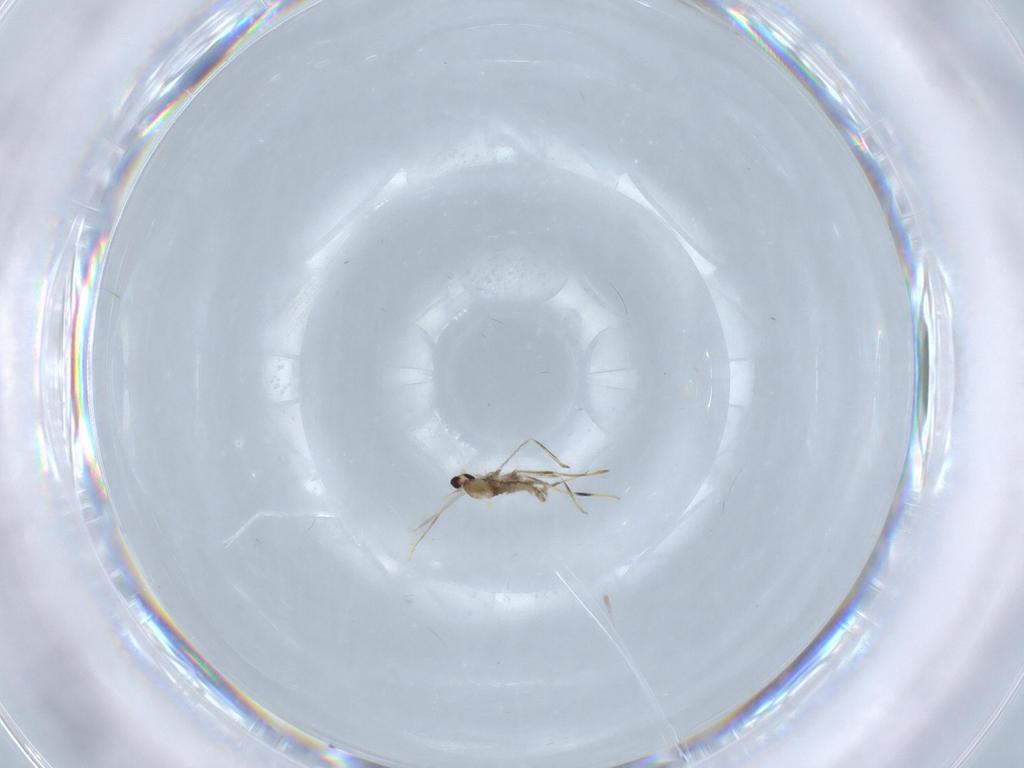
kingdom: Animalia
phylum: Arthropoda
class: Insecta
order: Diptera
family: Cecidomyiidae
